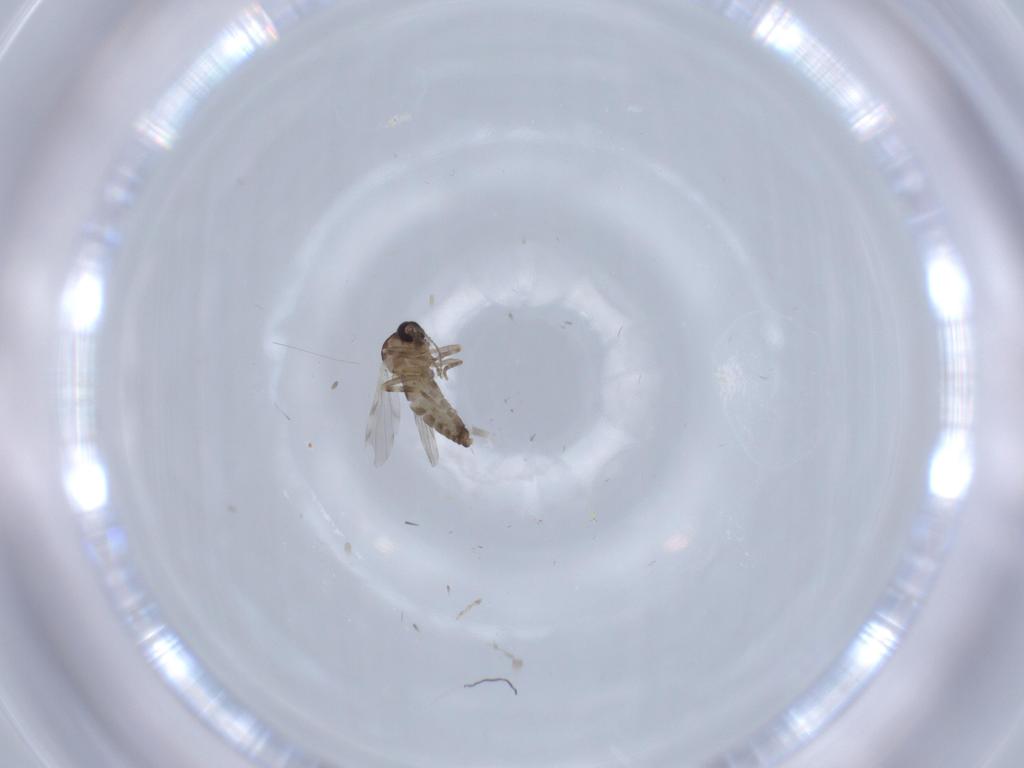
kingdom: Animalia
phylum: Arthropoda
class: Insecta
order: Diptera
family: Ceratopogonidae
